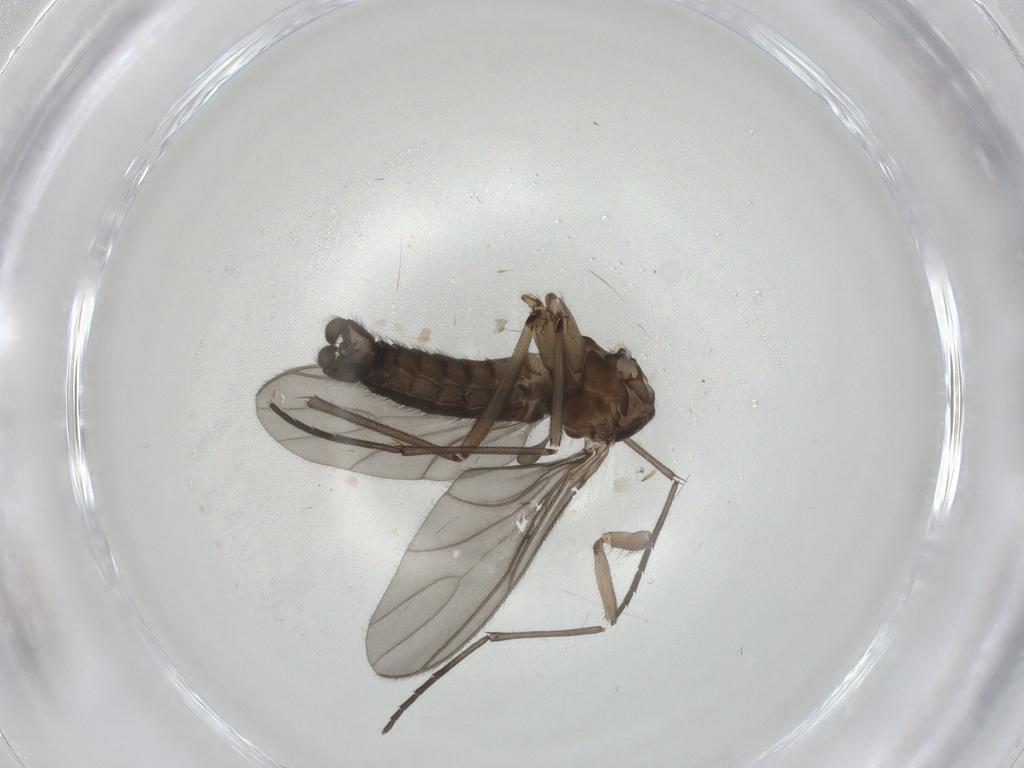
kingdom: Animalia
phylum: Arthropoda
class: Insecta
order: Diptera
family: Sciaridae
